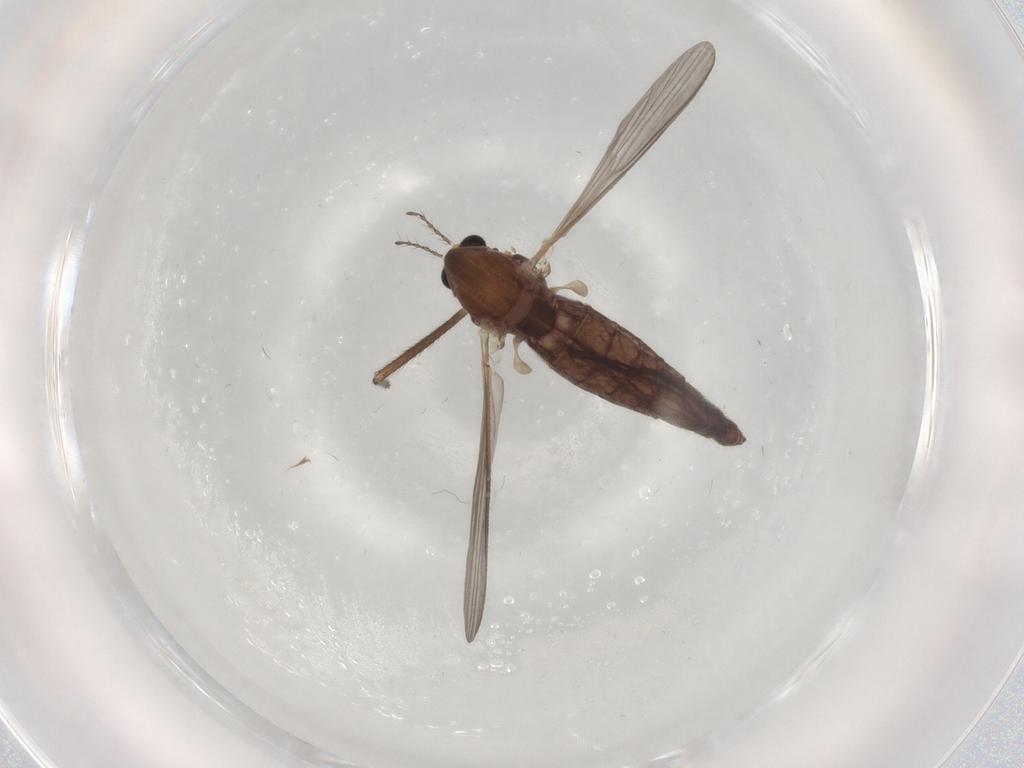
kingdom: Animalia
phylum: Arthropoda
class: Insecta
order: Diptera
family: Chironomidae
